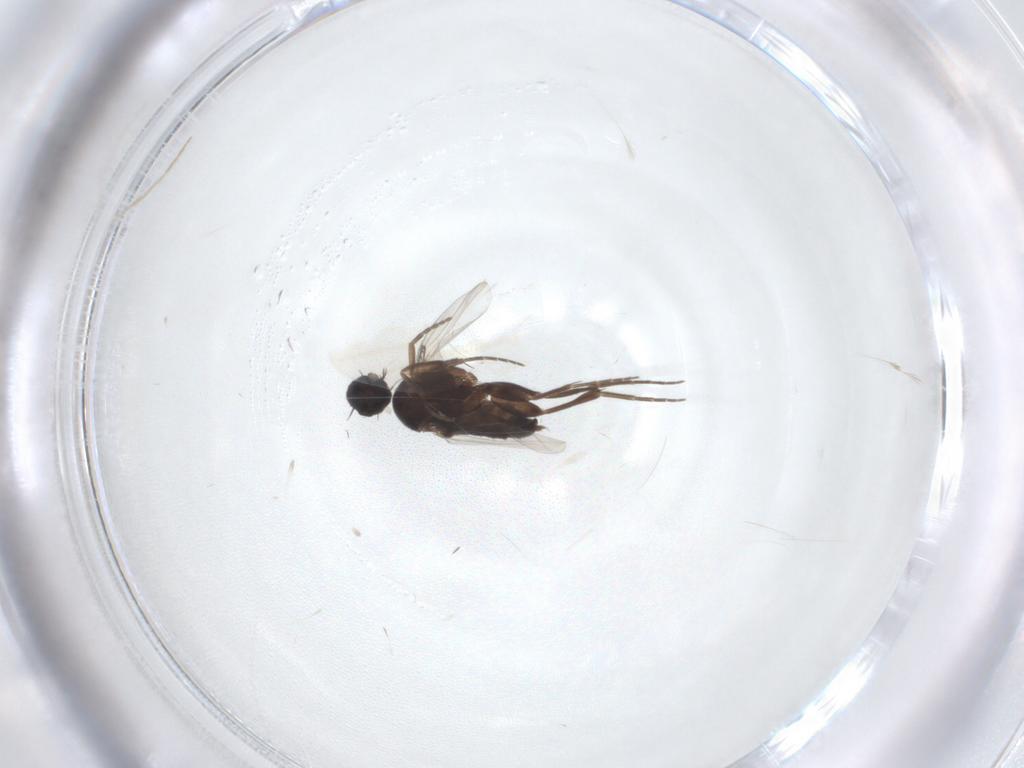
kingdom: Animalia
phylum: Arthropoda
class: Insecta
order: Diptera
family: Phoridae
